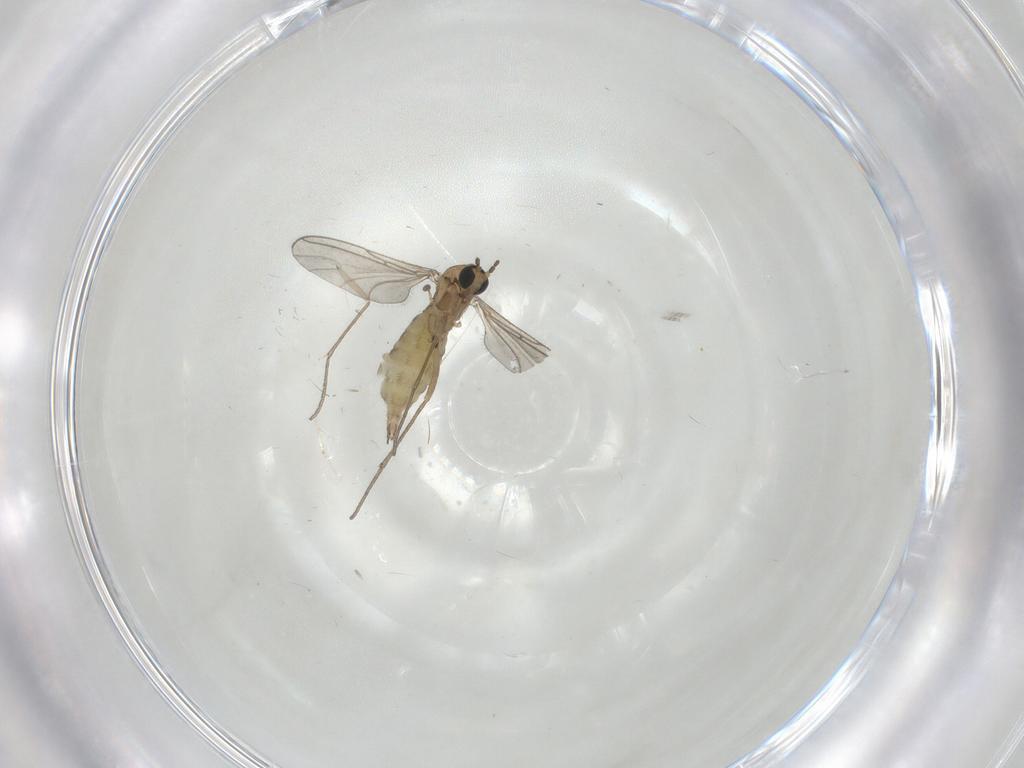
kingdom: Animalia
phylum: Arthropoda
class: Insecta
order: Diptera
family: Sciaridae
